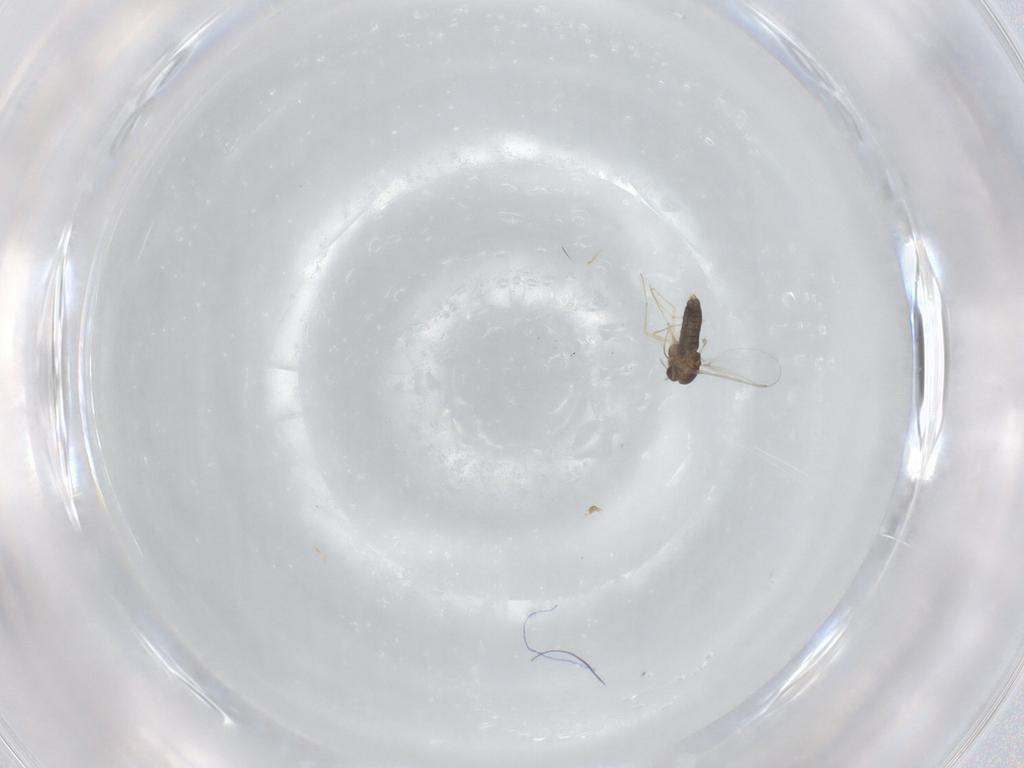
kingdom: Animalia
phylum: Arthropoda
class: Insecta
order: Diptera
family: Chironomidae
